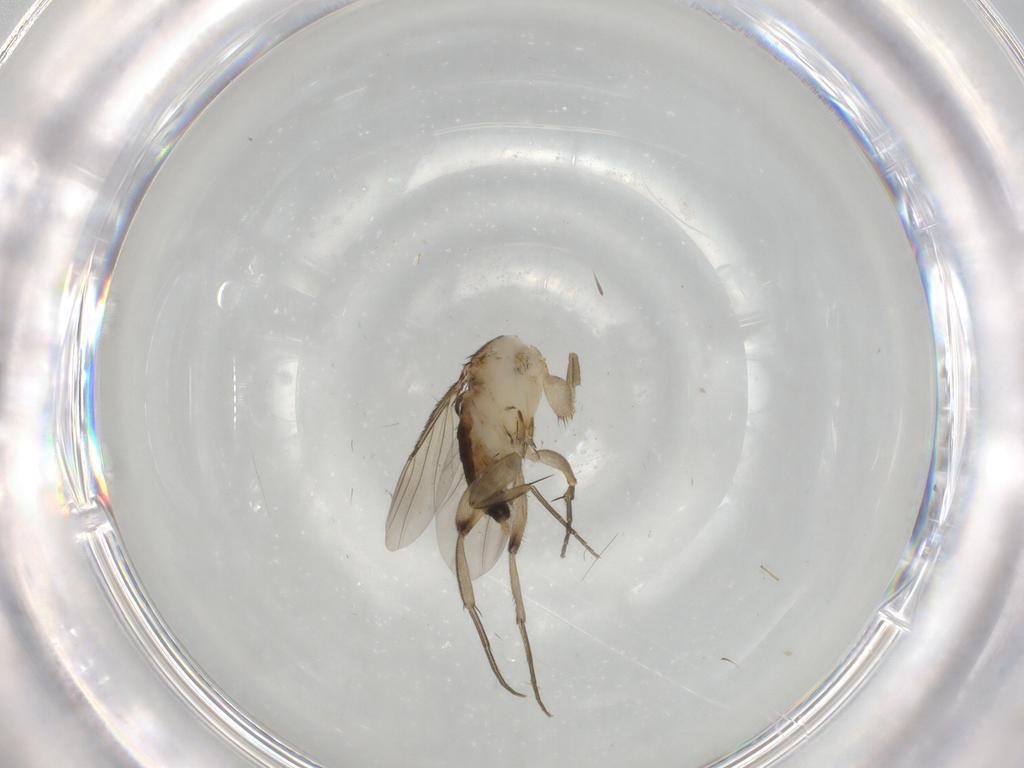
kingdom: Animalia
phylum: Arthropoda
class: Insecta
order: Diptera
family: Phoridae
